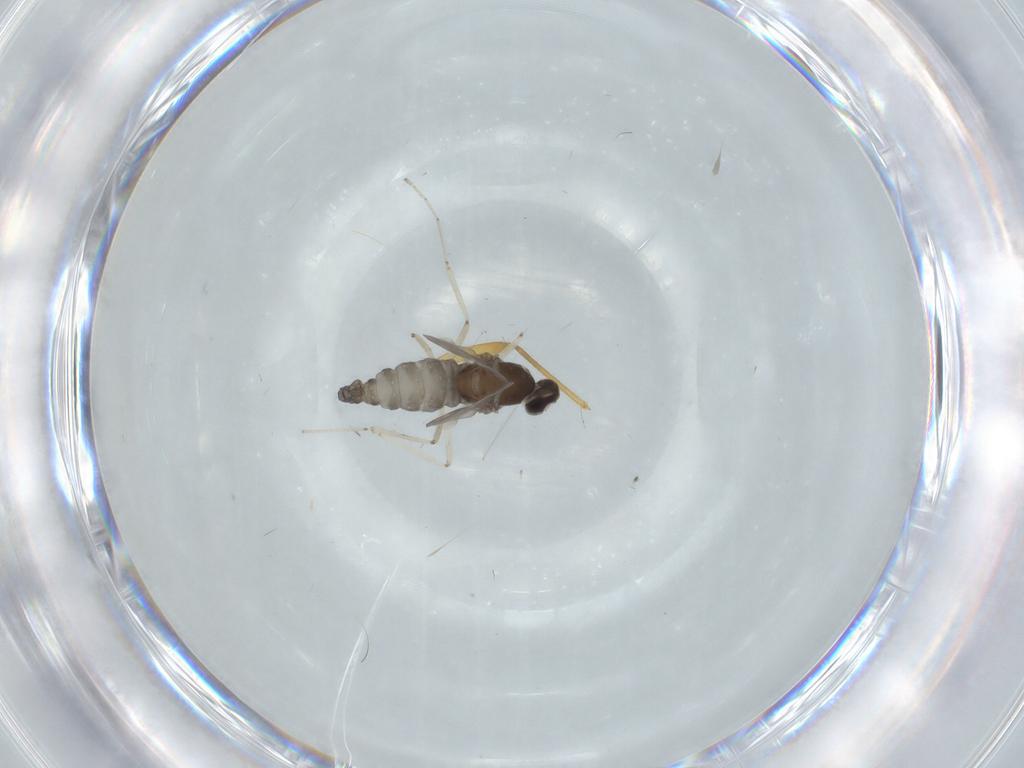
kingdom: Animalia
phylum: Arthropoda
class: Insecta
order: Diptera
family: Cecidomyiidae
